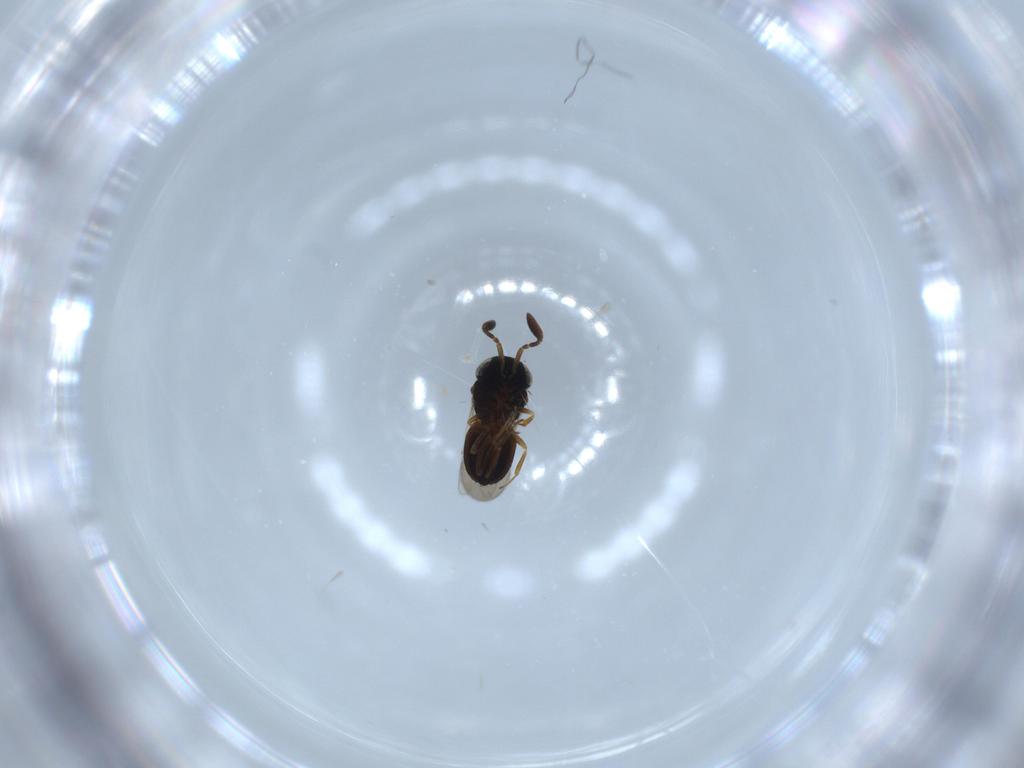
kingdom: Animalia
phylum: Arthropoda
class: Insecta
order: Hymenoptera
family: Scelionidae
